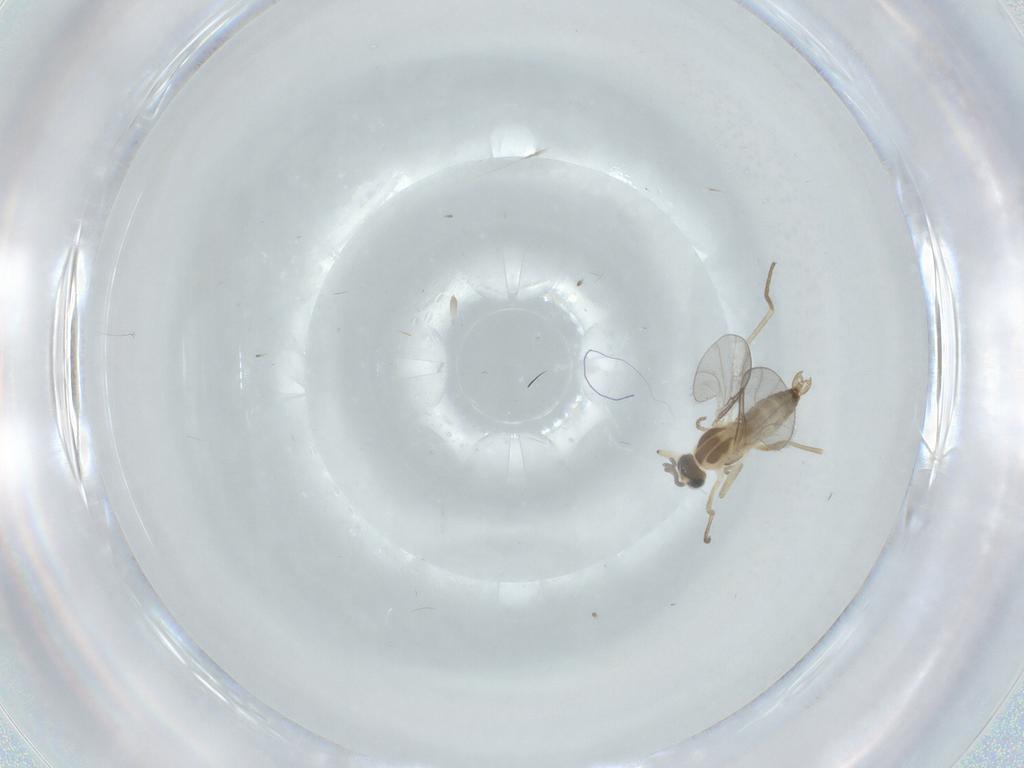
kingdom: Animalia
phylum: Arthropoda
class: Insecta
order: Diptera
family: Cecidomyiidae
